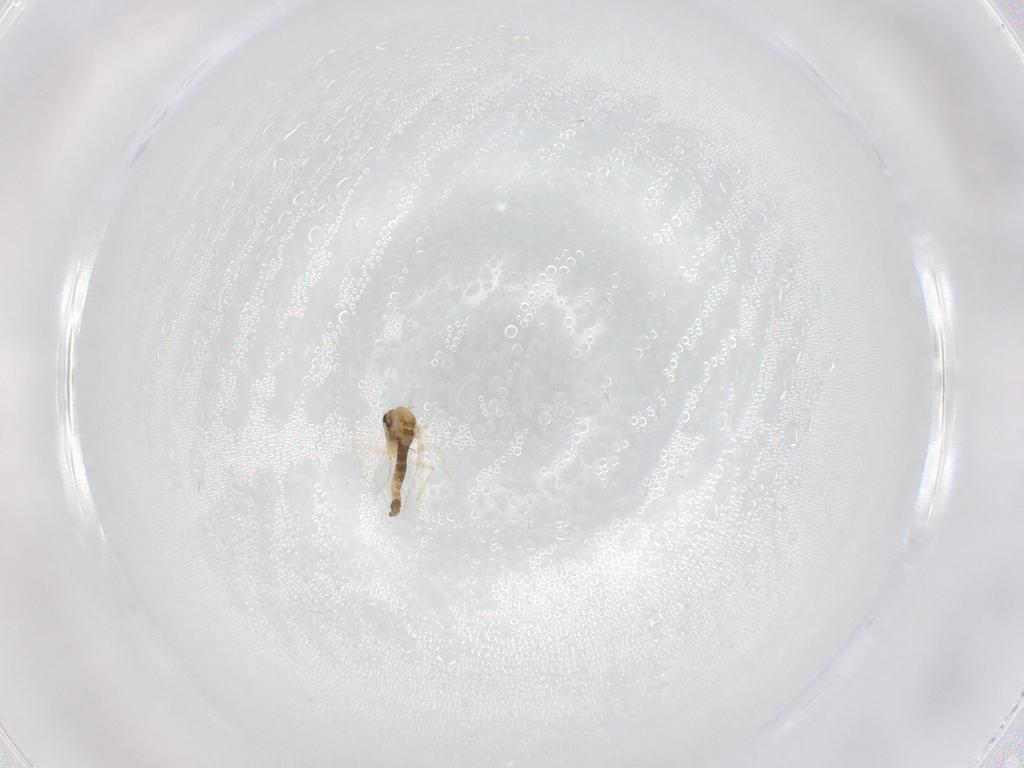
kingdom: Animalia
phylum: Arthropoda
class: Insecta
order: Diptera
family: Chironomidae
